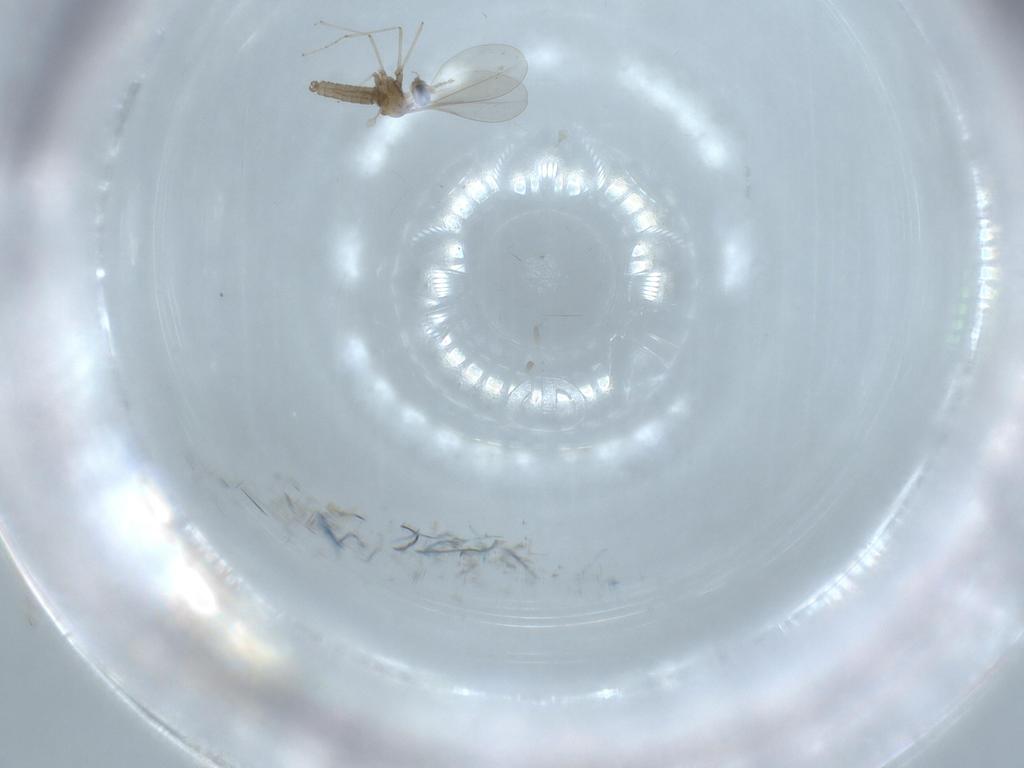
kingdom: Animalia
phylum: Arthropoda
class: Insecta
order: Diptera
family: Cecidomyiidae
